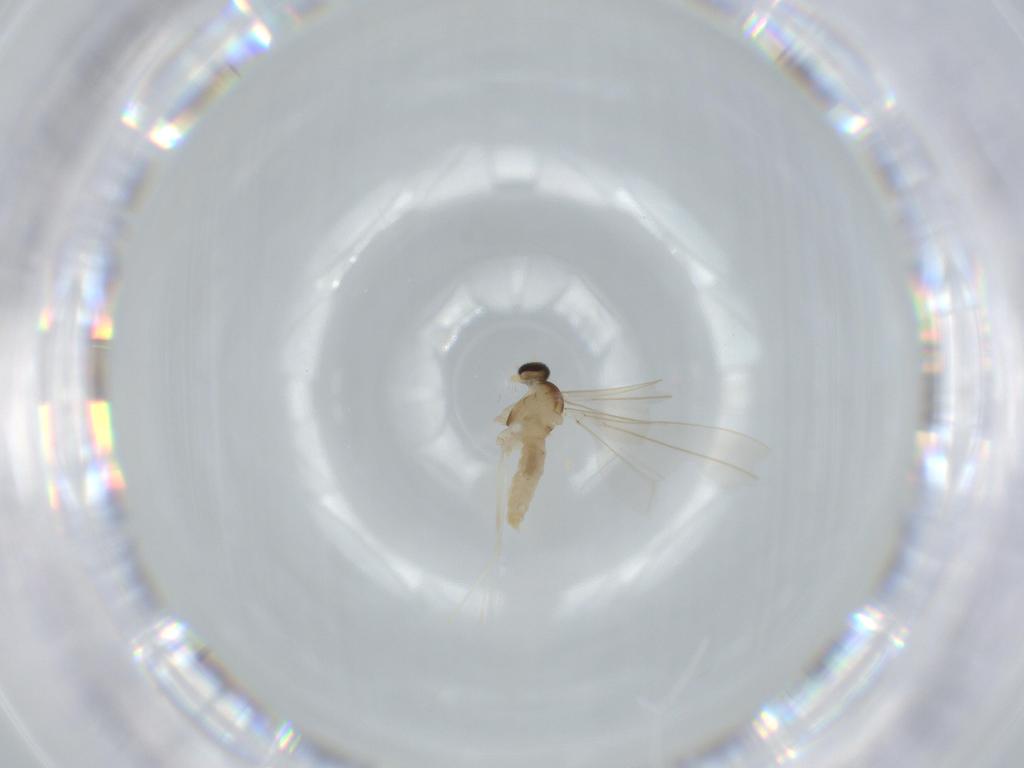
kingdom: Animalia
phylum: Arthropoda
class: Insecta
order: Diptera
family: Cecidomyiidae
